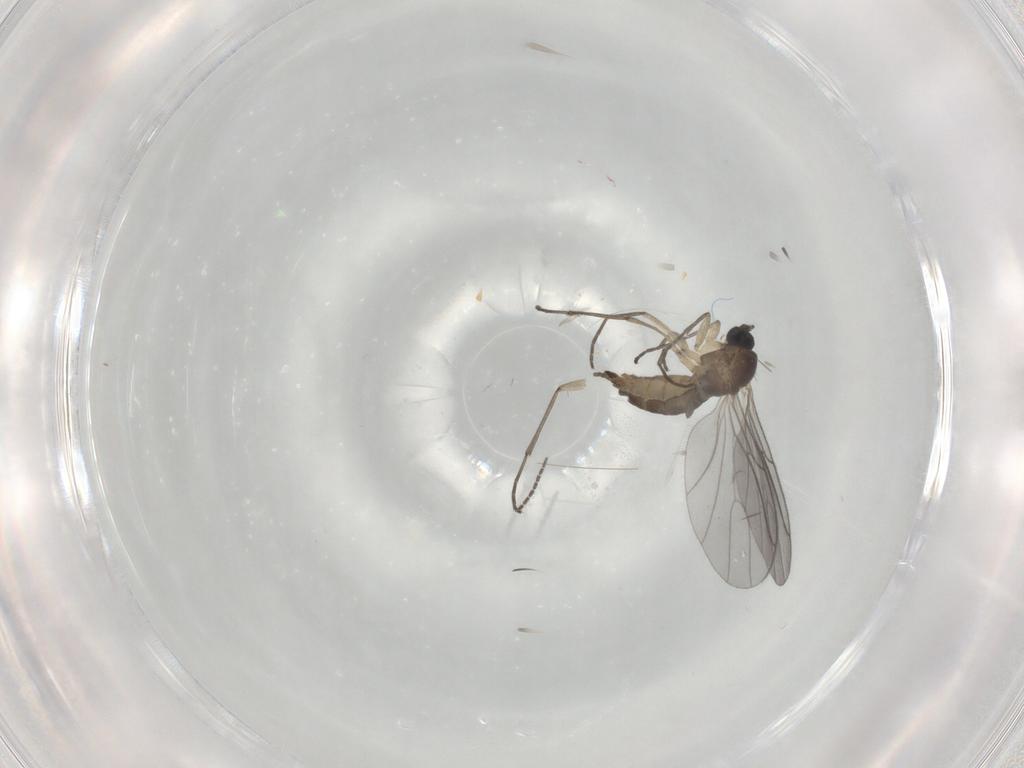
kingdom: Animalia
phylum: Arthropoda
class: Insecta
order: Diptera
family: Sciaridae
